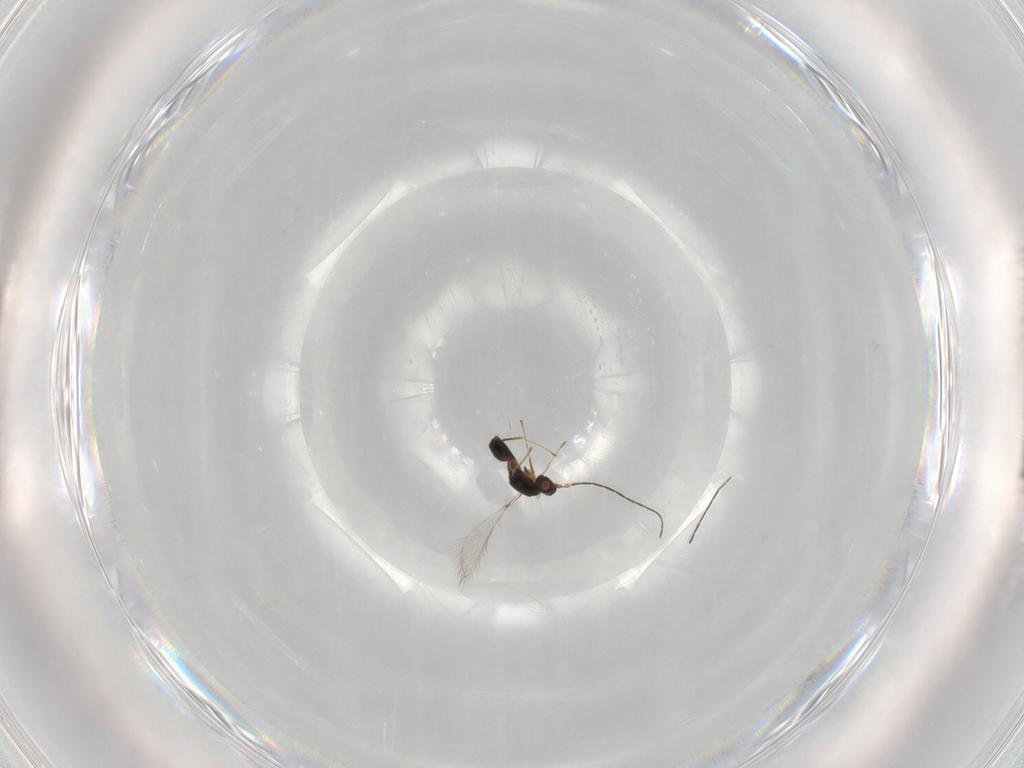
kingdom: Animalia
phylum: Arthropoda
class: Insecta
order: Hymenoptera
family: Mymaridae
